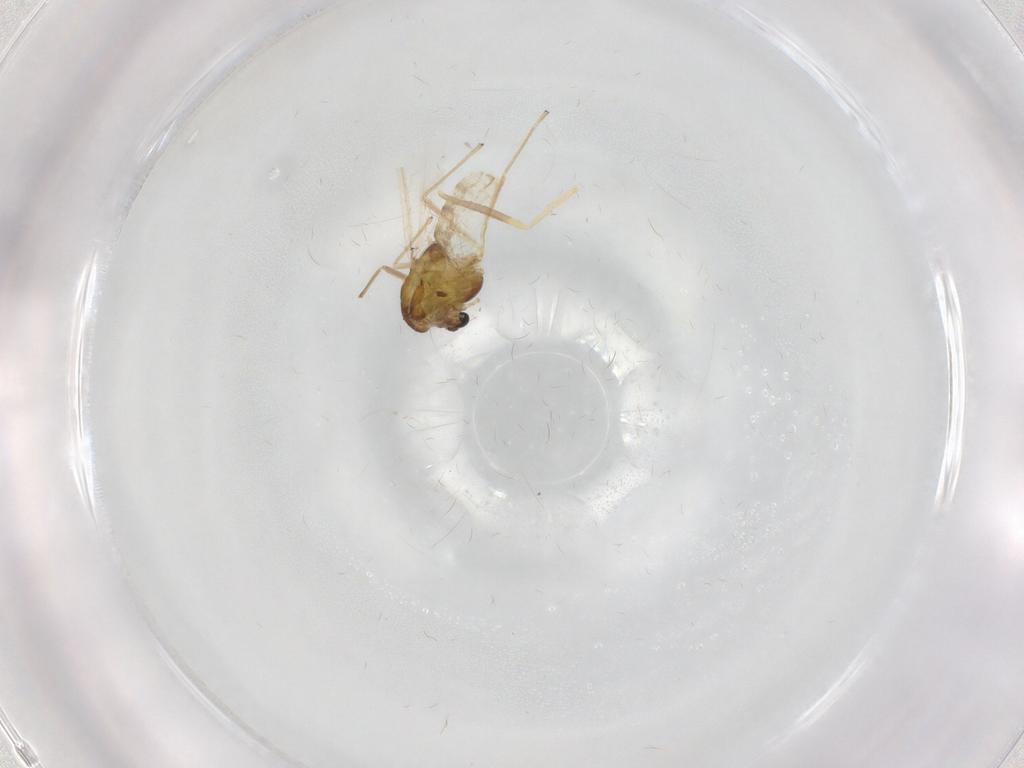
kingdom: Animalia
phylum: Arthropoda
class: Insecta
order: Diptera
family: Chironomidae
